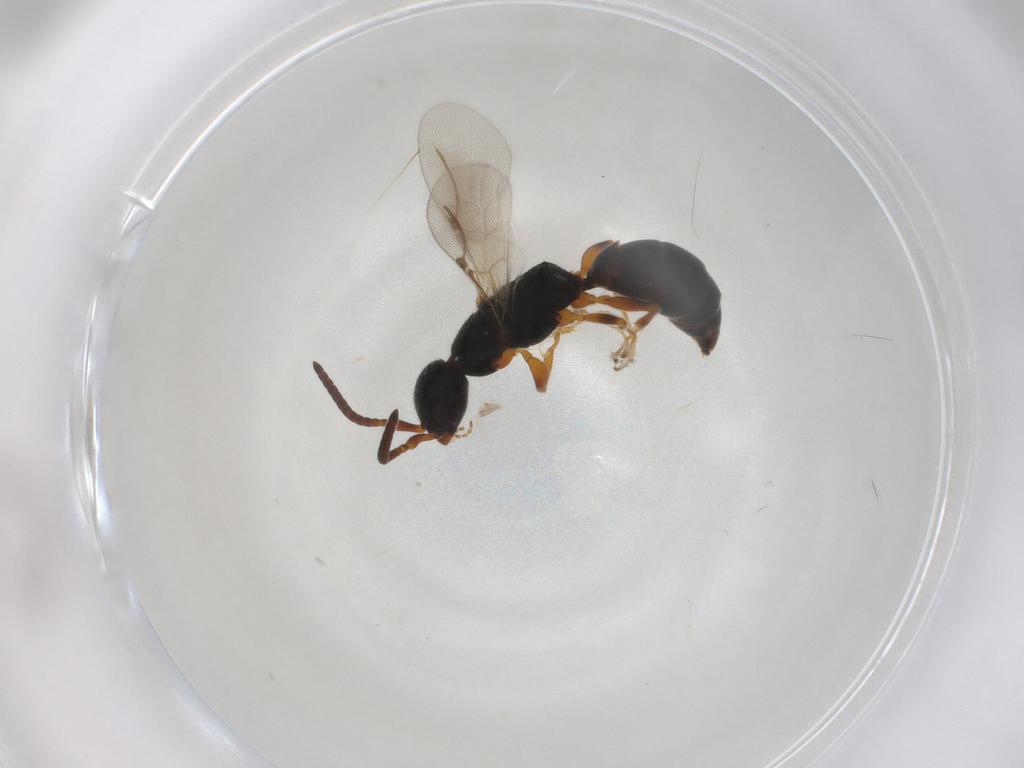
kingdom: Animalia
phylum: Arthropoda
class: Insecta
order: Hymenoptera
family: Bethylidae
